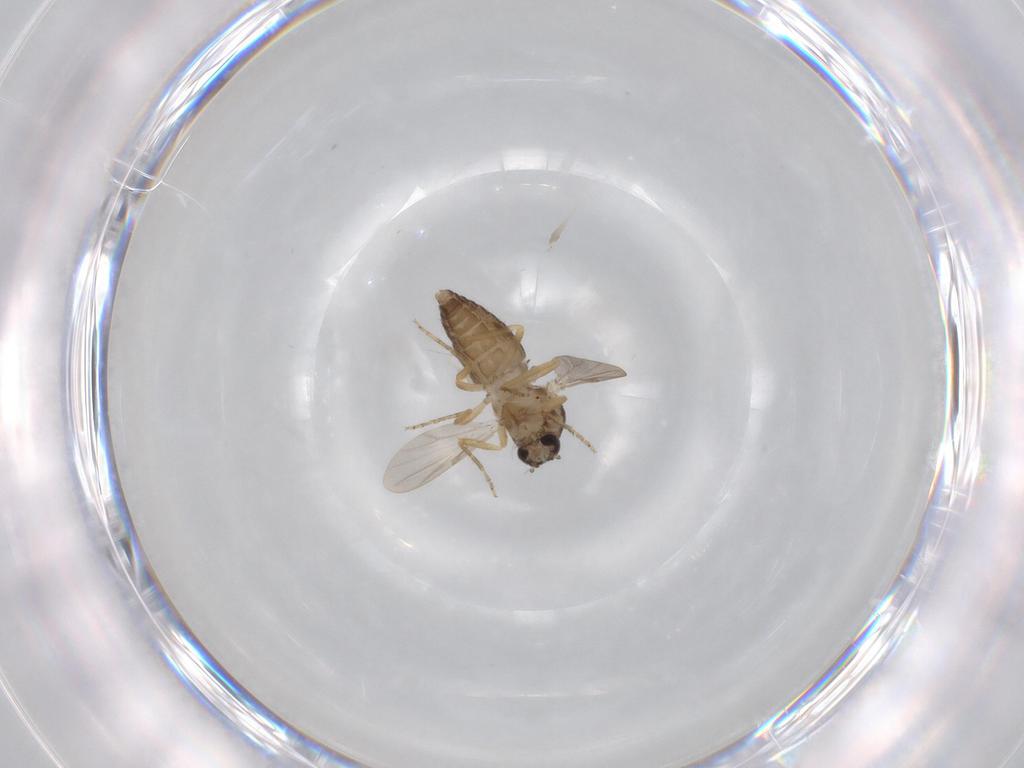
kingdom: Animalia
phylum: Arthropoda
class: Insecta
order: Diptera
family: Ceratopogonidae
